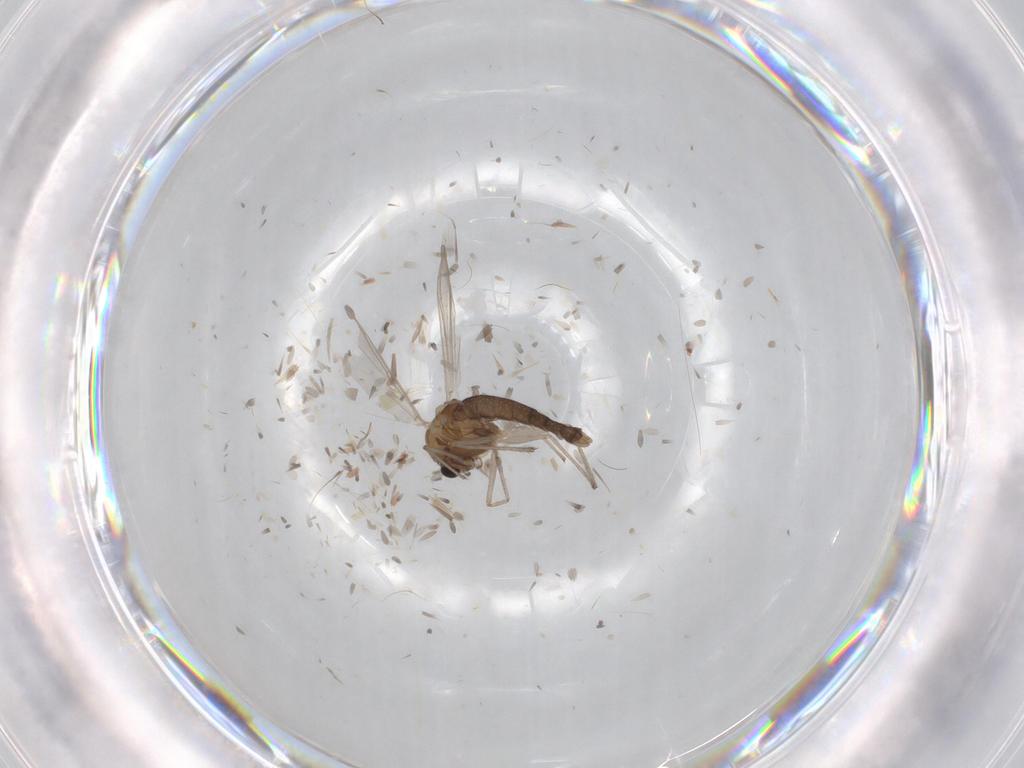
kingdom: Animalia
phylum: Arthropoda
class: Insecta
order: Diptera
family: Chironomidae
